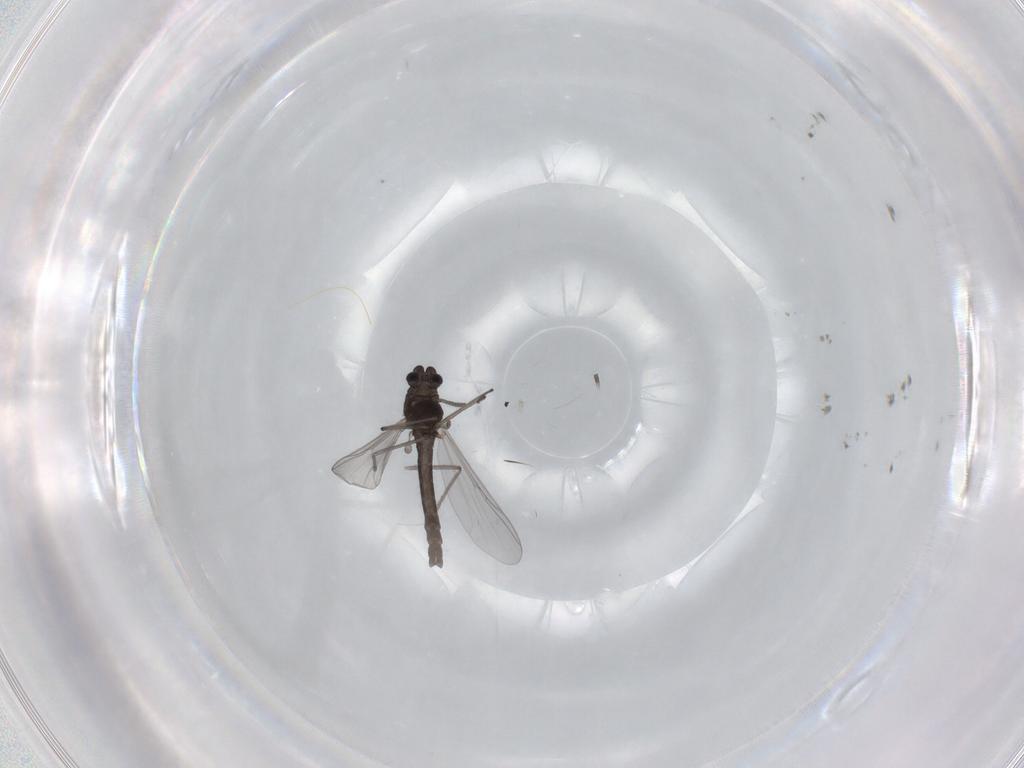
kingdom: Animalia
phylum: Arthropoda
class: Insecta
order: Diptera
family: Chironomidae
